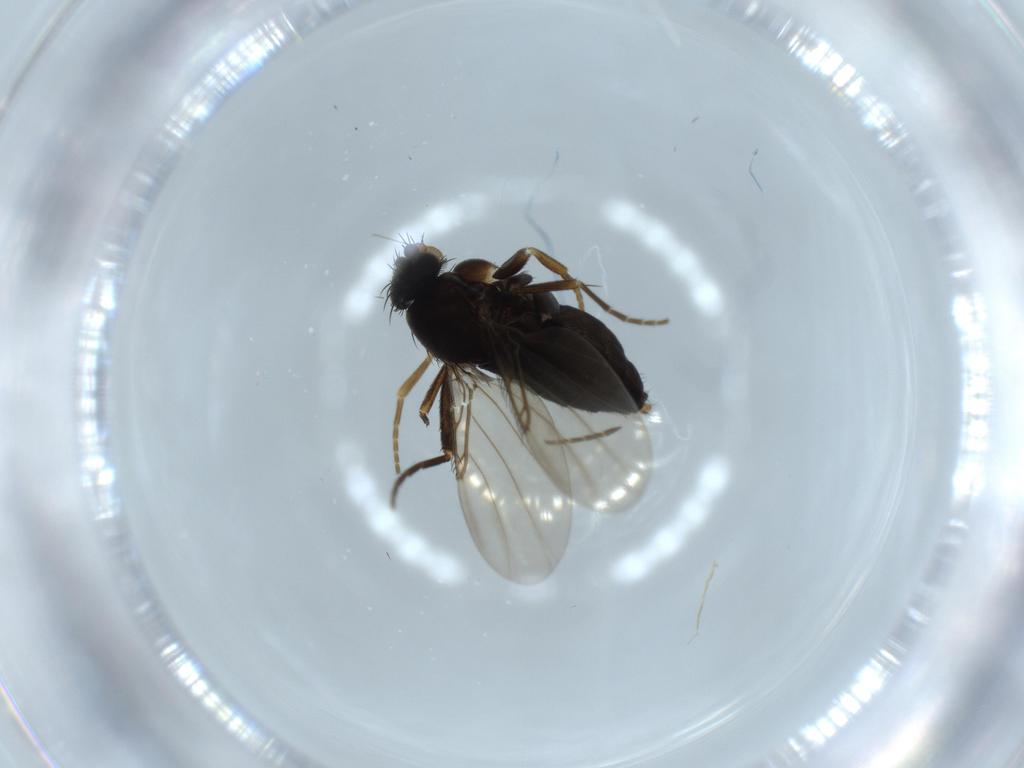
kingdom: Animalia
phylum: Arthropoda
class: Insecta
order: Diptera
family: Phoridae
